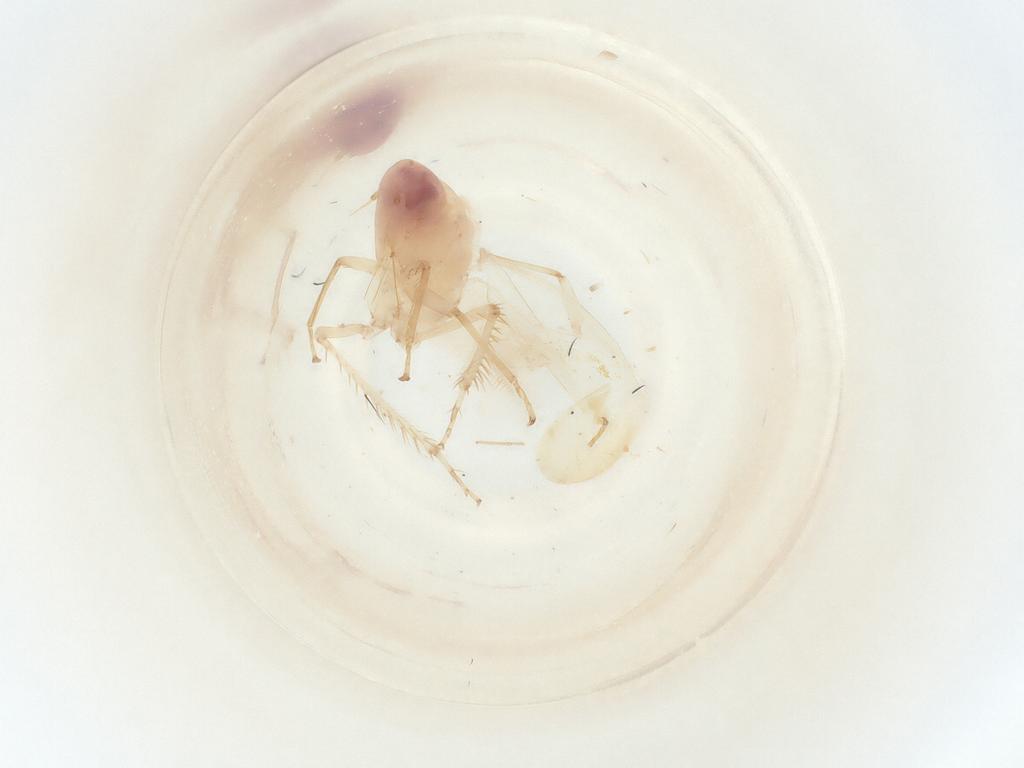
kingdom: Animalia
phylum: Arthropoda
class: Insecta
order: Hemiptera
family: Cicadellidae
